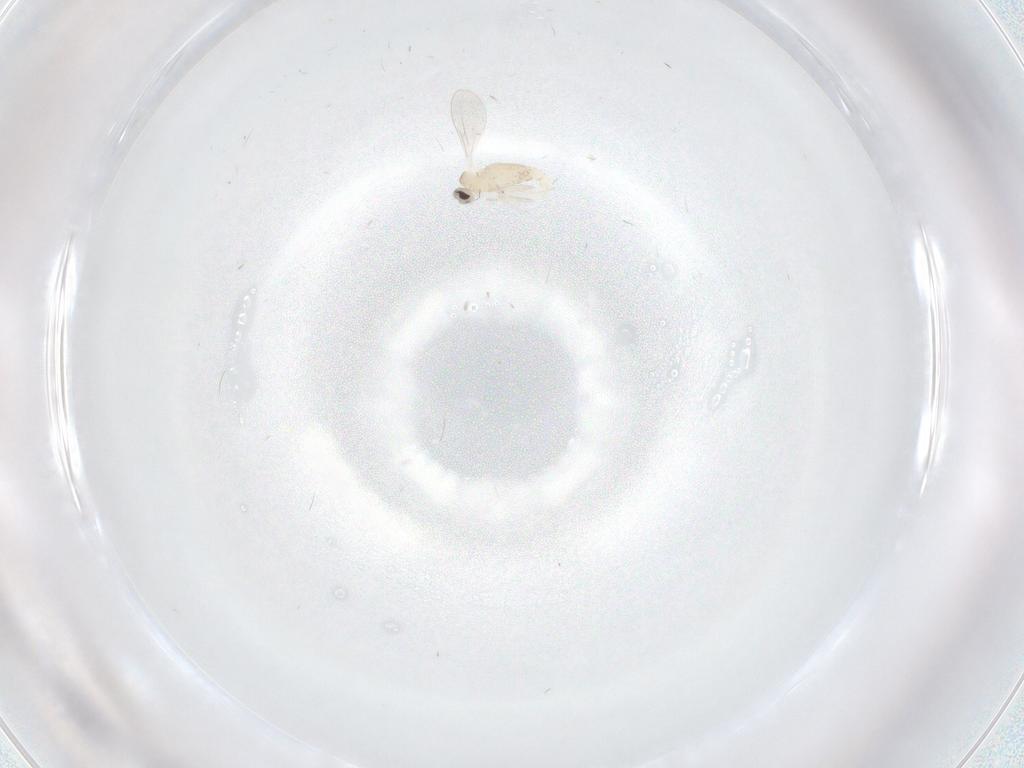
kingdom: Animalia
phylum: Arthropoda
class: Insecta
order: Diptera
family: Cecidomyiidae
